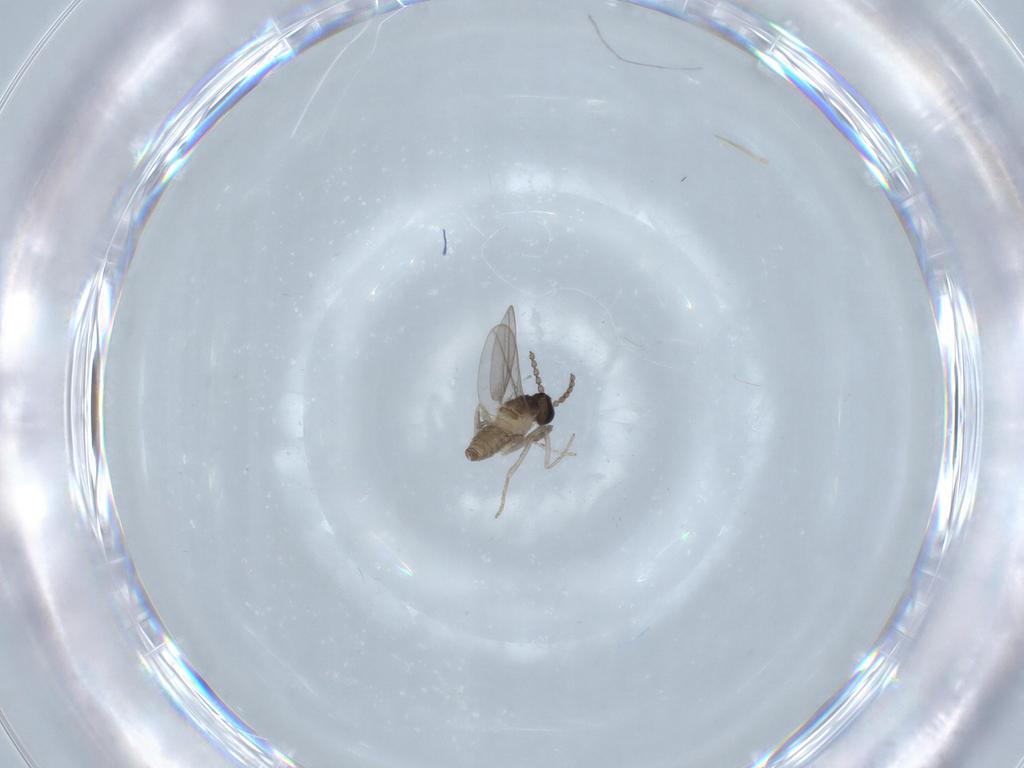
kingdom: Animalia
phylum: Arthropoda
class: Insecta
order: Diptera
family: Cecidomyiidae
